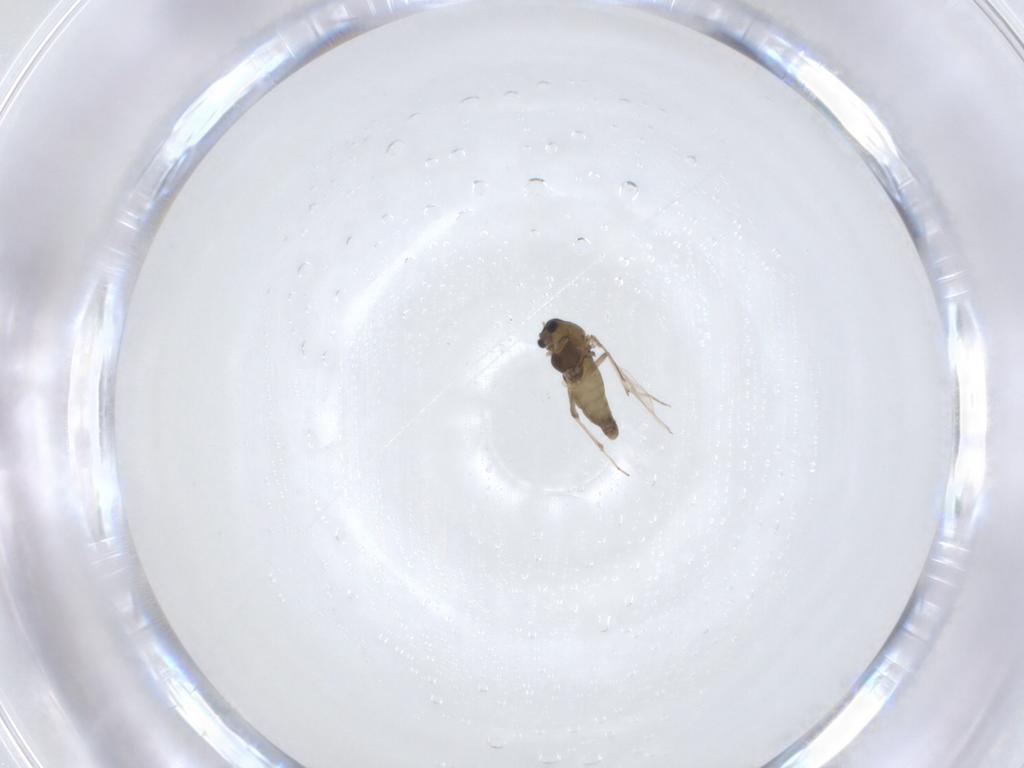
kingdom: Animalia
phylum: Arthropoda
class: Insecta
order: Diptera
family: Chironomidae
